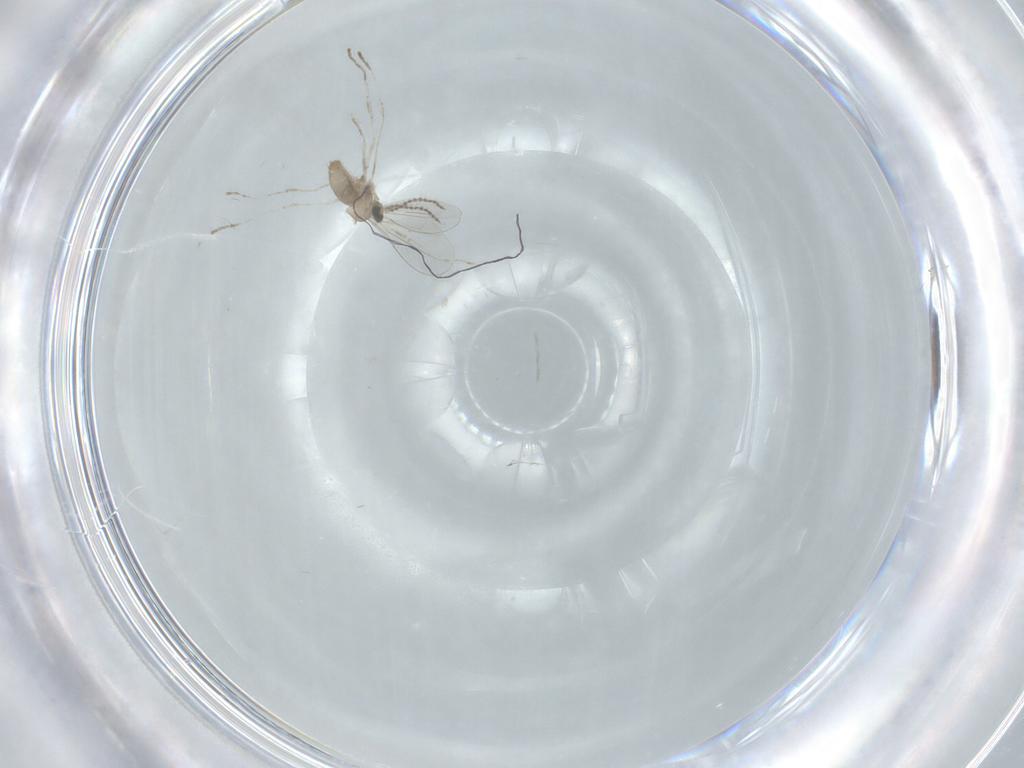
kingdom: Animalia
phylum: Arthropoda
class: Insecta
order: Diptera
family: Cecidomyiidae
